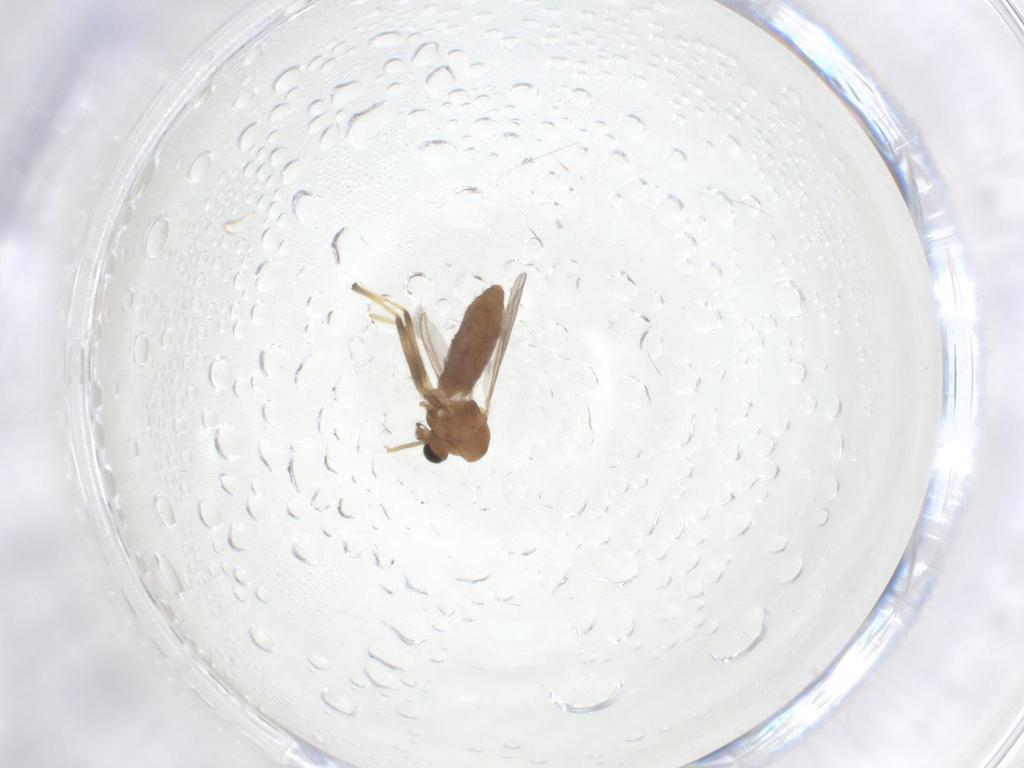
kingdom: Animalia
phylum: Arthropoda
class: Insecta
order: Diptera
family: Chironomidae
